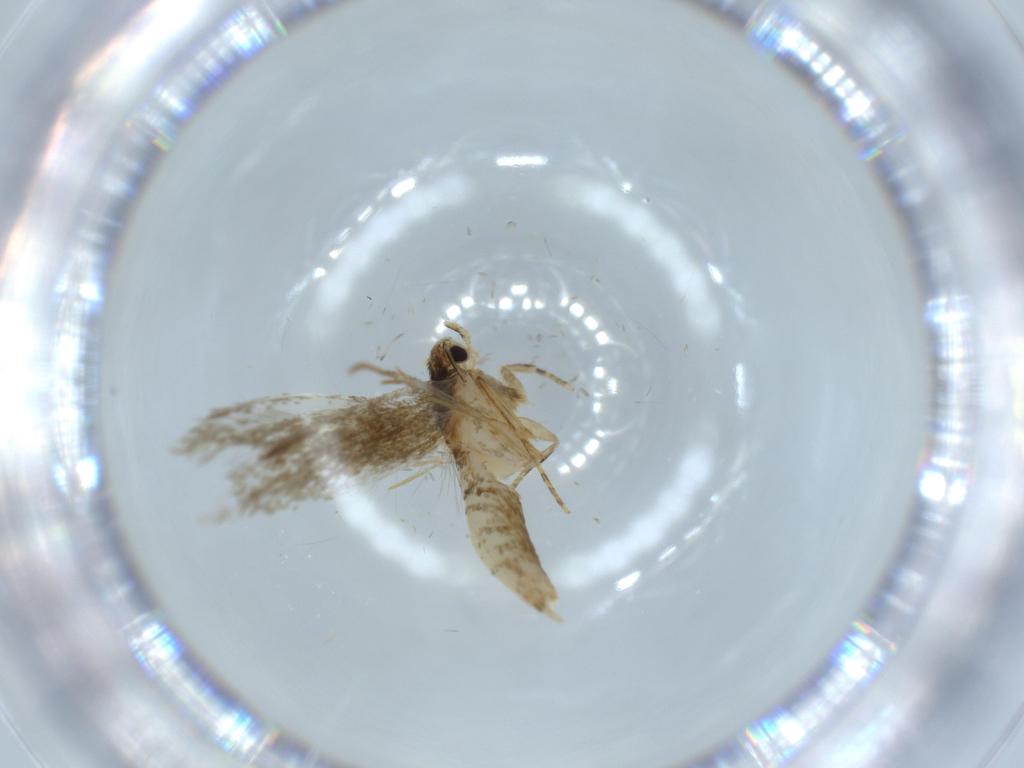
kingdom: Animalia
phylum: Arthropoda
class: Insecta
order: Lepidoptera
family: Tineidae
